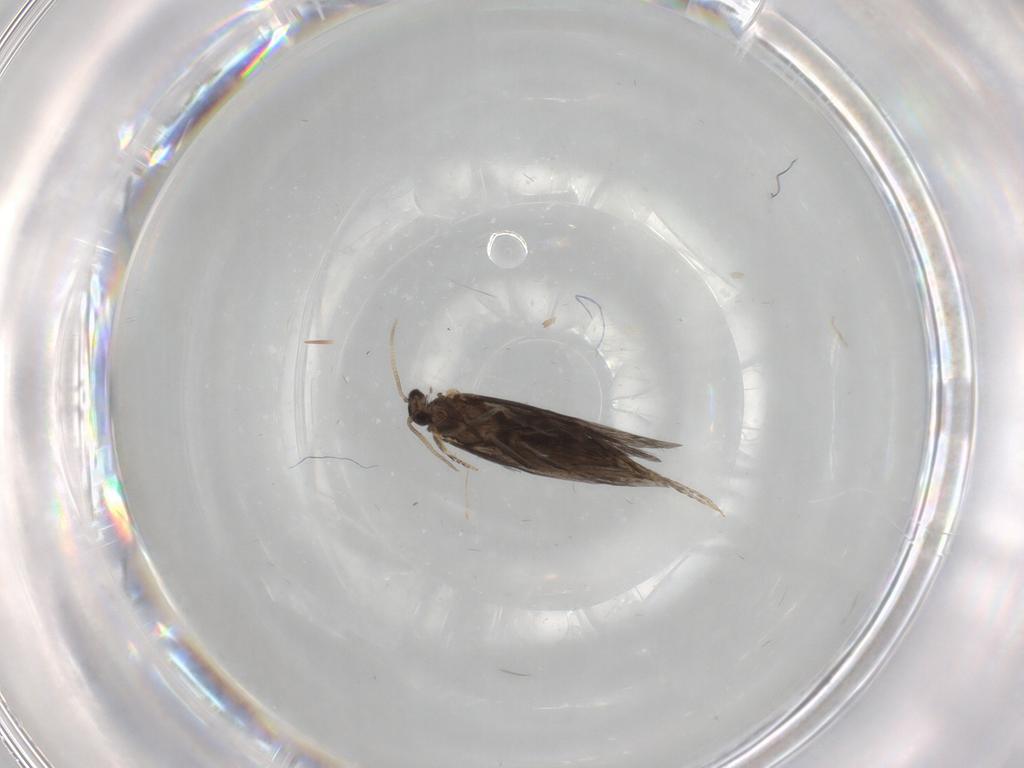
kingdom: Animalia
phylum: Arthropoda
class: Insecta
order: Trichoptera
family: Hydroptilidae
